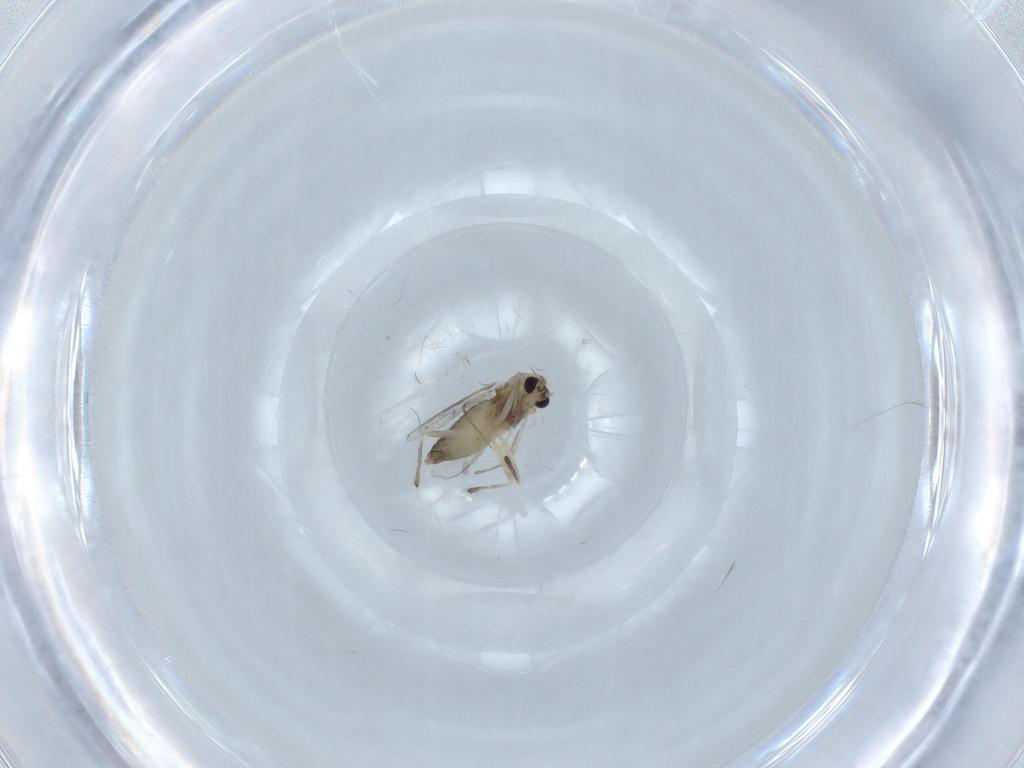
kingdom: Animalia
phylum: Arthropoda
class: Insecta
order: Diptera
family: Chironomidae
